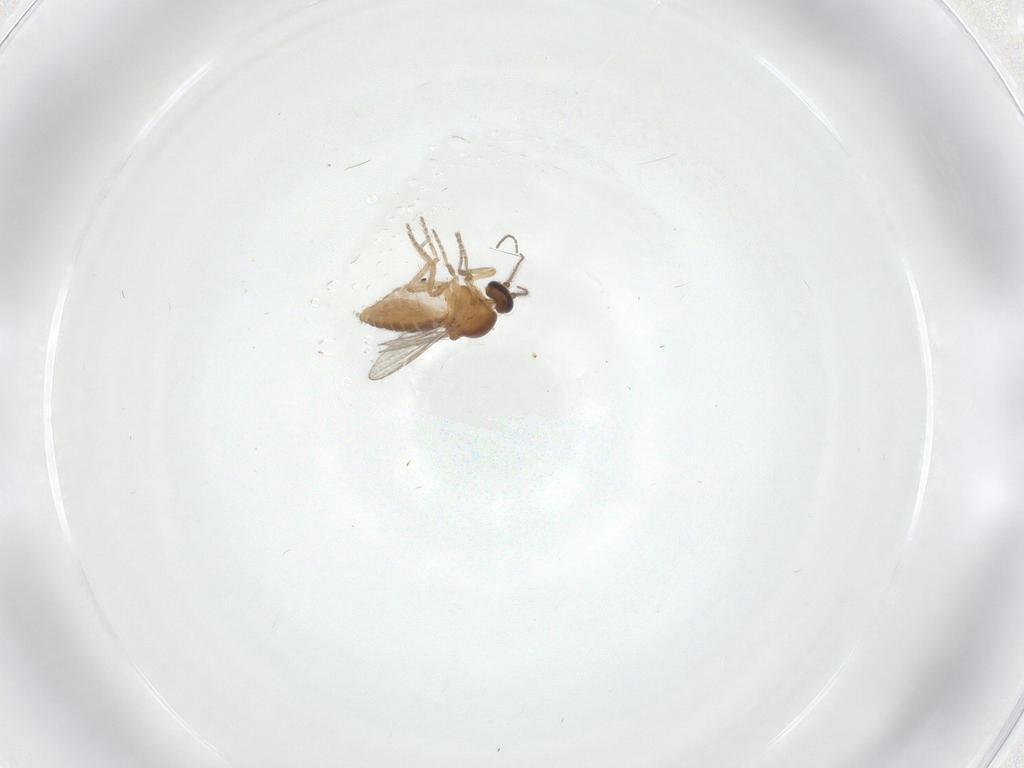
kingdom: Animalia
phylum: Arthropoda
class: Insecta
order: Diptera
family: Ceratopogonidae
